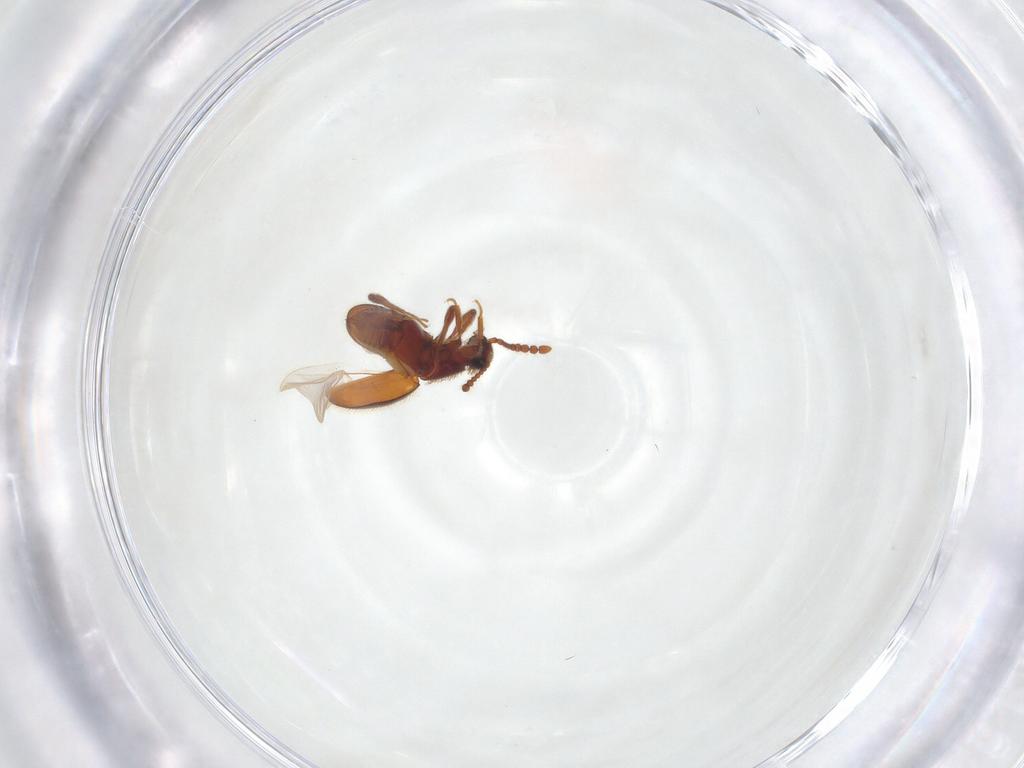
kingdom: Animalia
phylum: Arthropoda
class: Insecta
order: Coleoptera
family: Staphylinidae
